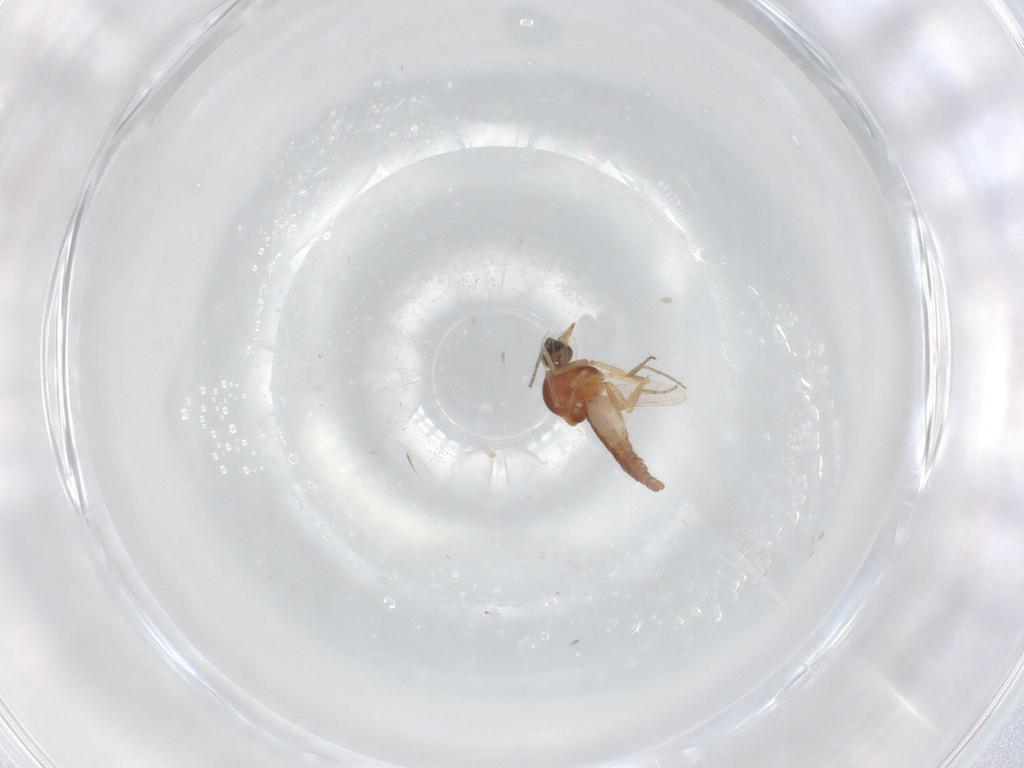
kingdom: Animalia
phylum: Arthropoda
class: Insecta
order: Diptera
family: Ceratopogonidae
